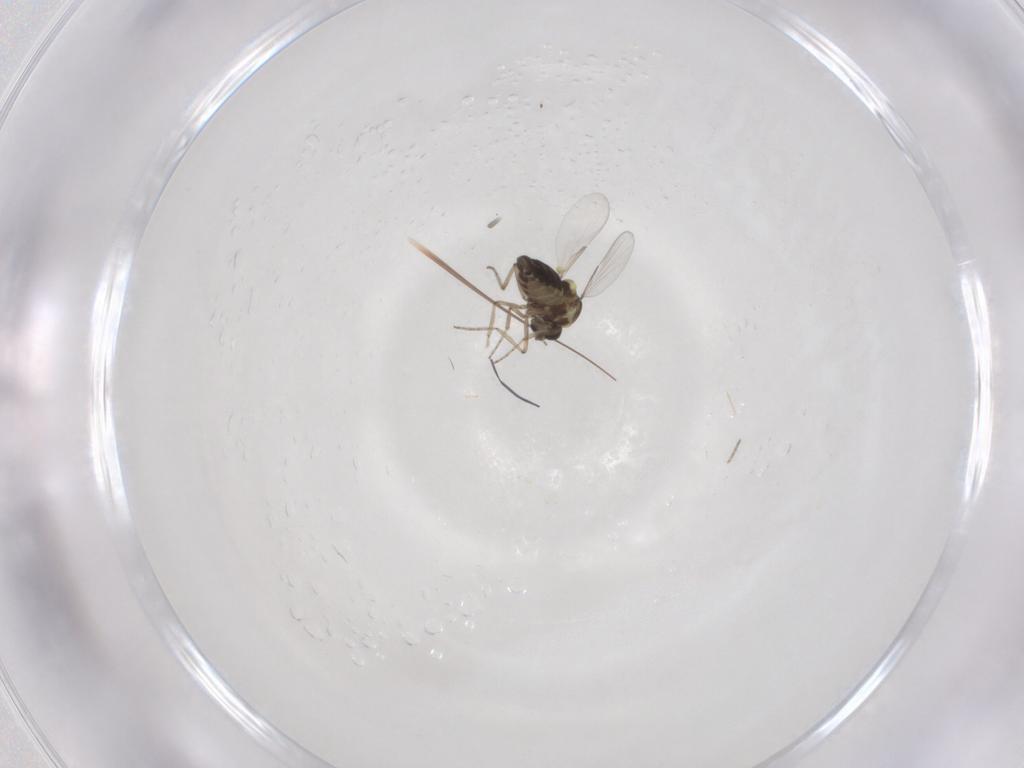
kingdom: Animalia
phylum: Arthropoda
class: Insecta
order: Diptera
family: Ceratopogonidae
